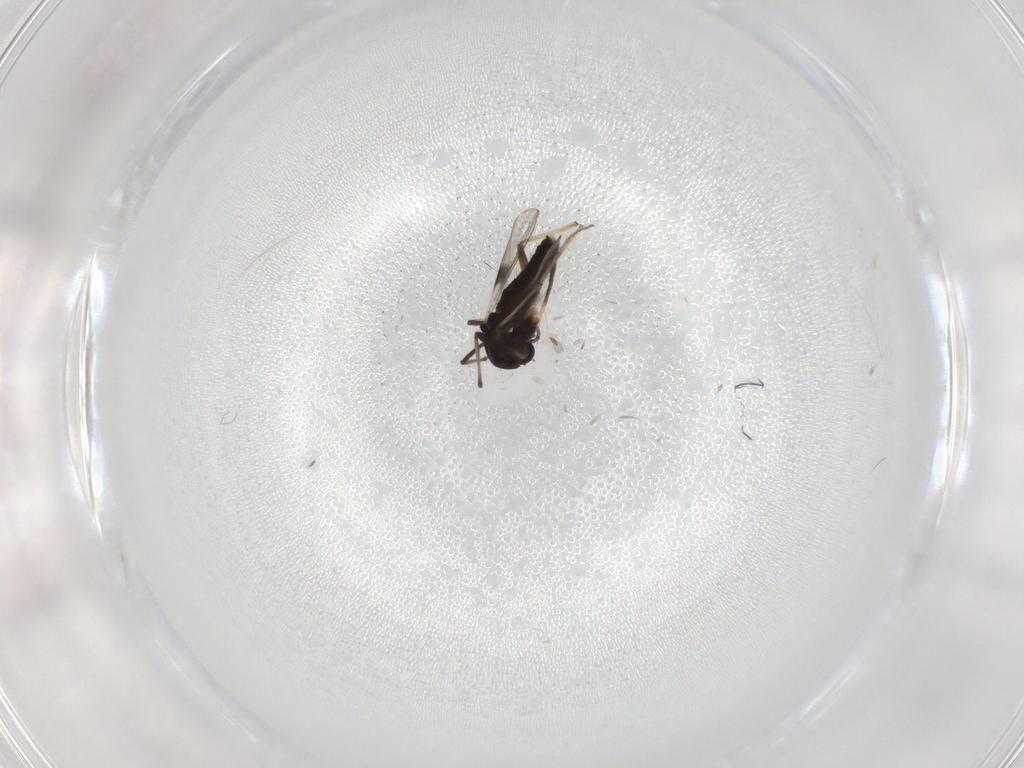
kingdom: Animalia
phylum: Arthropoda
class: Insecta
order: Diptera
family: Chironomidae
